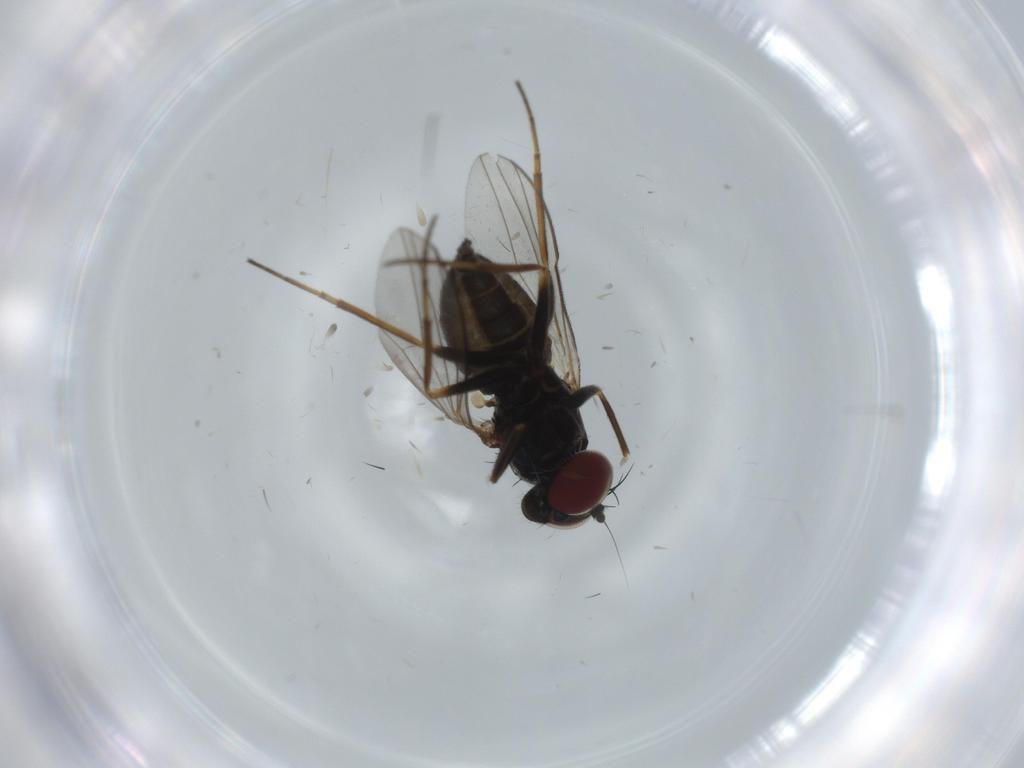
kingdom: Animalia
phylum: Arthropoda
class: Insecta
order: Diptera
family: Dolichopodidae
